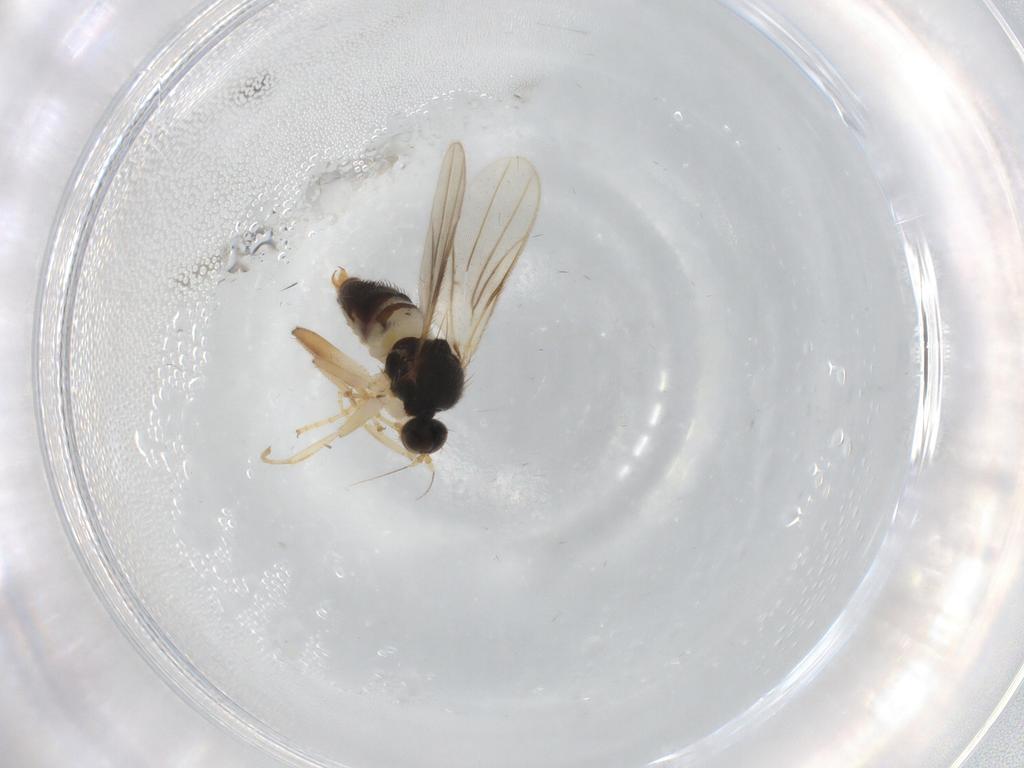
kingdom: Animalia
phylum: Arthropoda
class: Insecta
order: Diptera
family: Hybotidae
